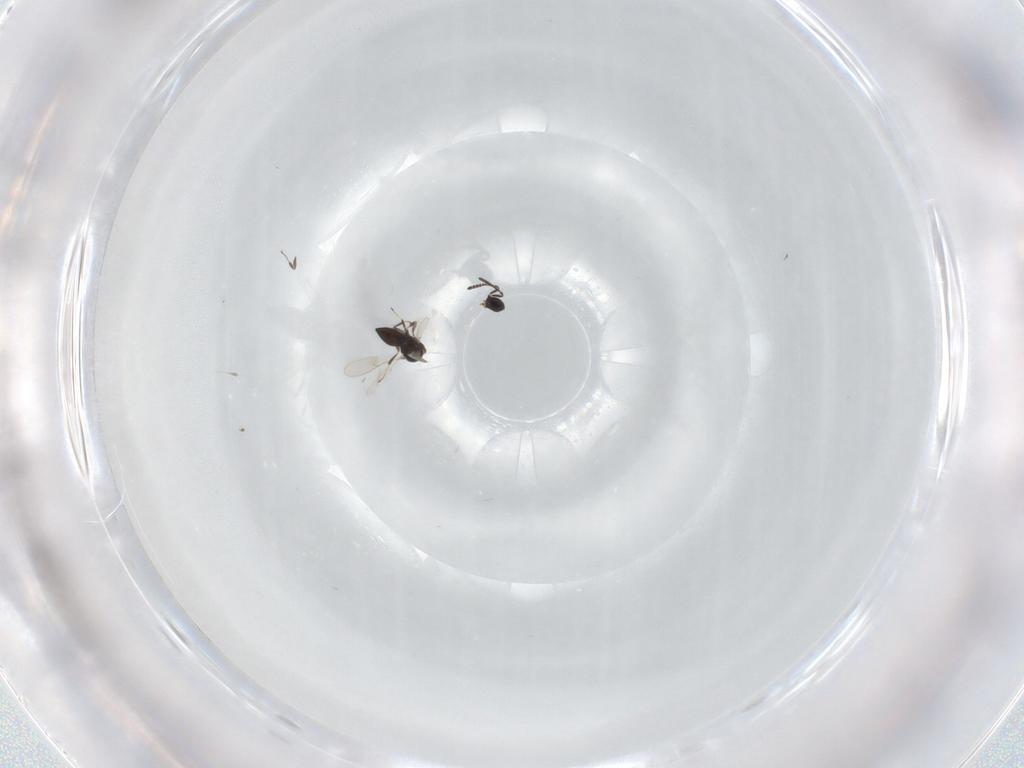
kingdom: Animalia
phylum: Arthropoda
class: Insecta
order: Hymenoptera
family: Scelionidae
